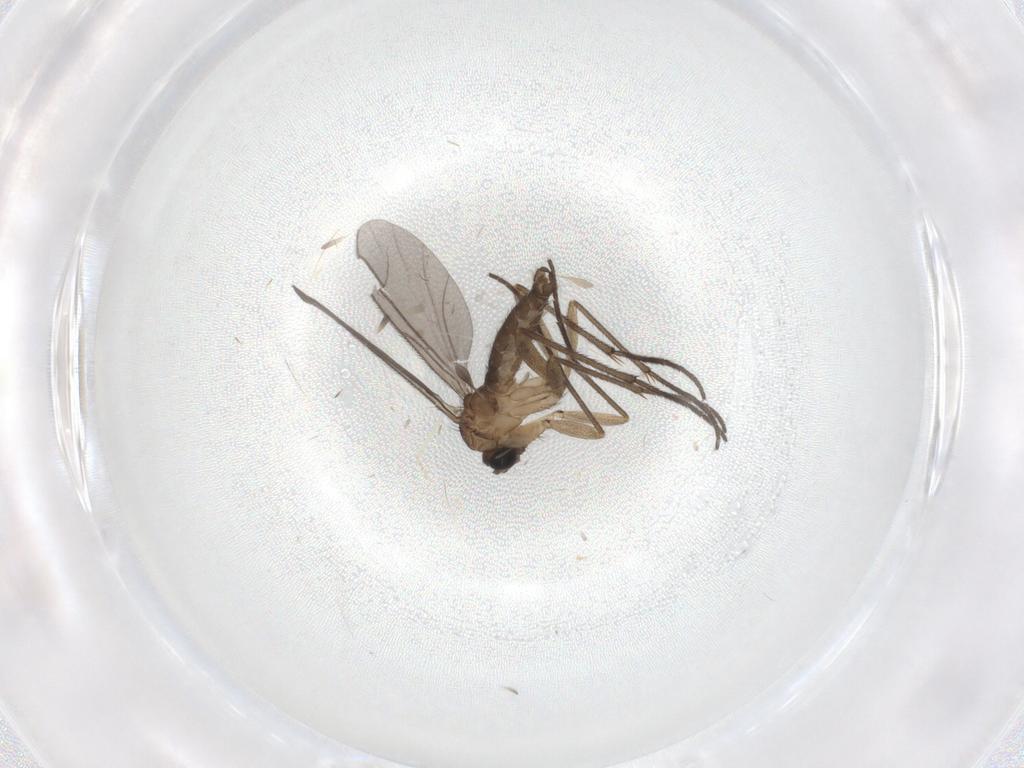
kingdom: Animalia
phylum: Arthropoda
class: Insecta
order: Diptera
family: Sciaridae
